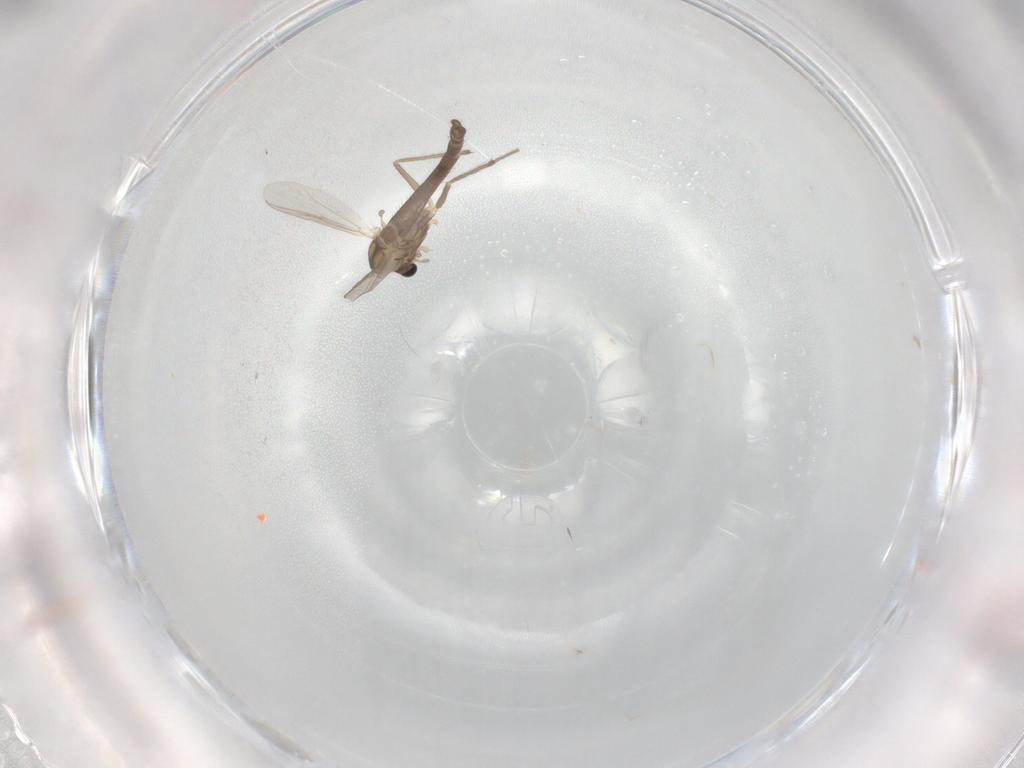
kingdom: Animalia
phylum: Arthropoda
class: Insecta
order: Diptera
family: Chironomidae
